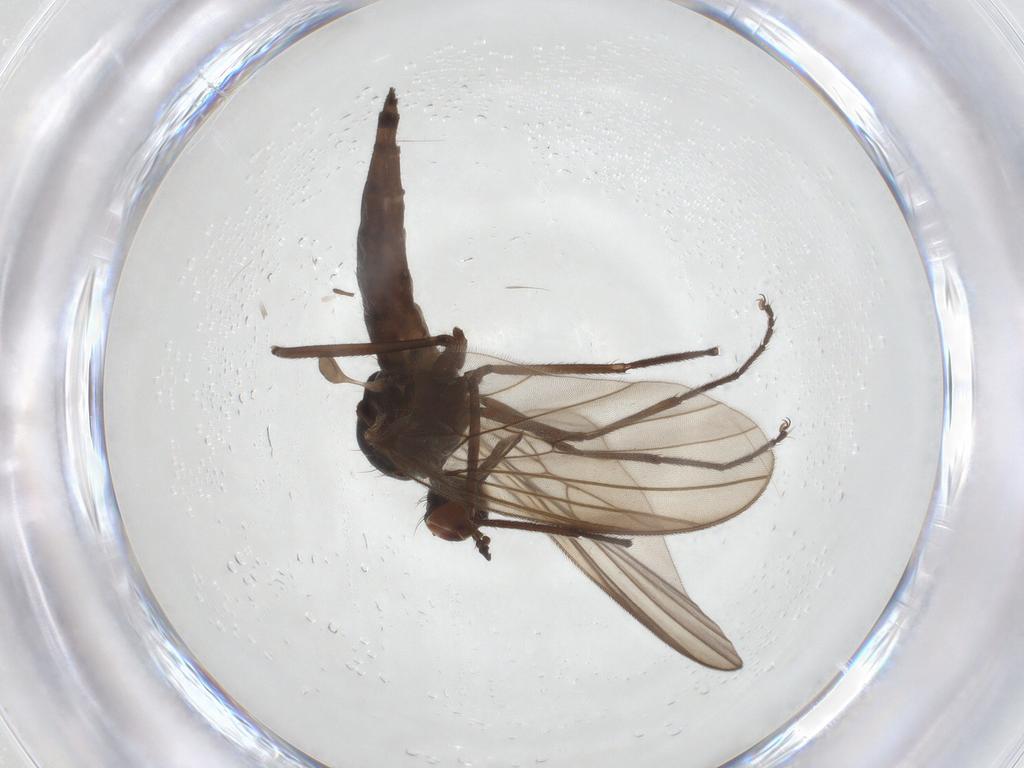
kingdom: Animalia
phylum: Arthropoda
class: Insecta
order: Diptera
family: Empididae
